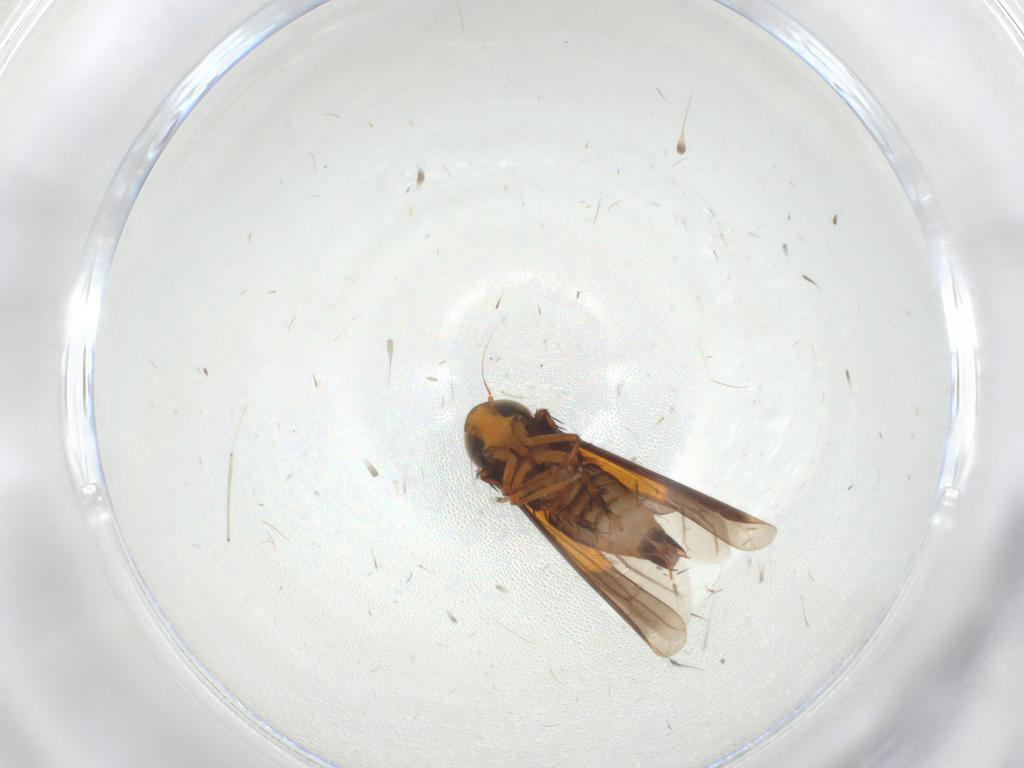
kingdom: Animalia
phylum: Arthropoda
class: Insecta
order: Hemiptera
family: Cicadellidae
